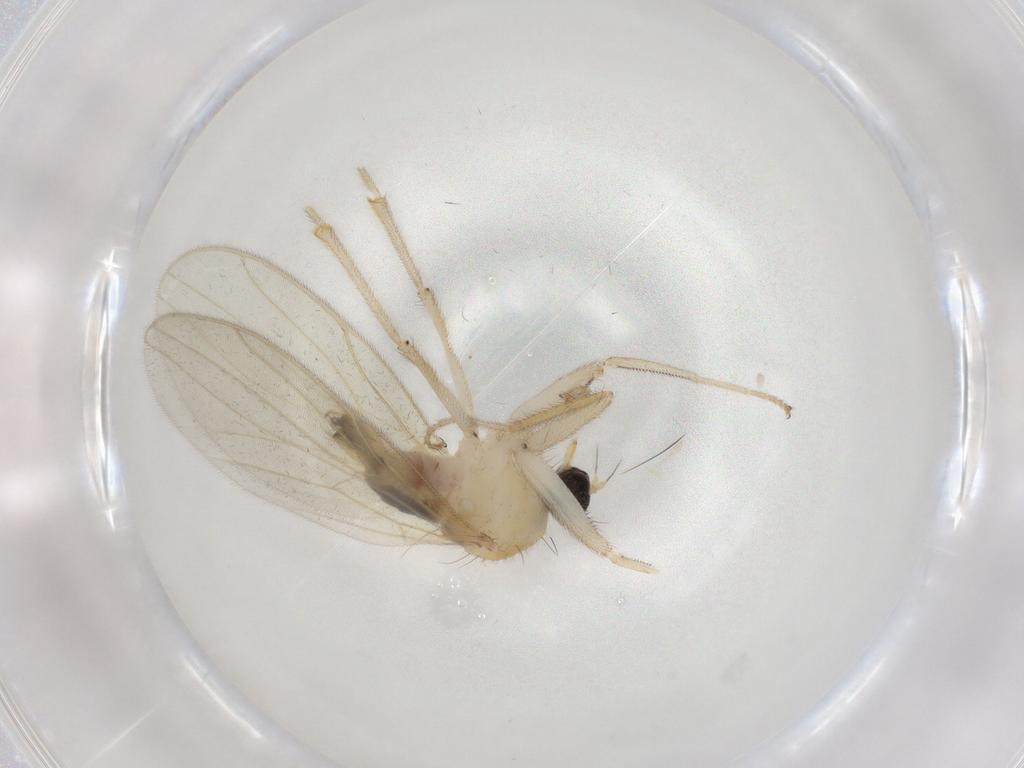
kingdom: Animalia
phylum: Arthropoda
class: Insecta
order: Diptera
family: Hybotidae
